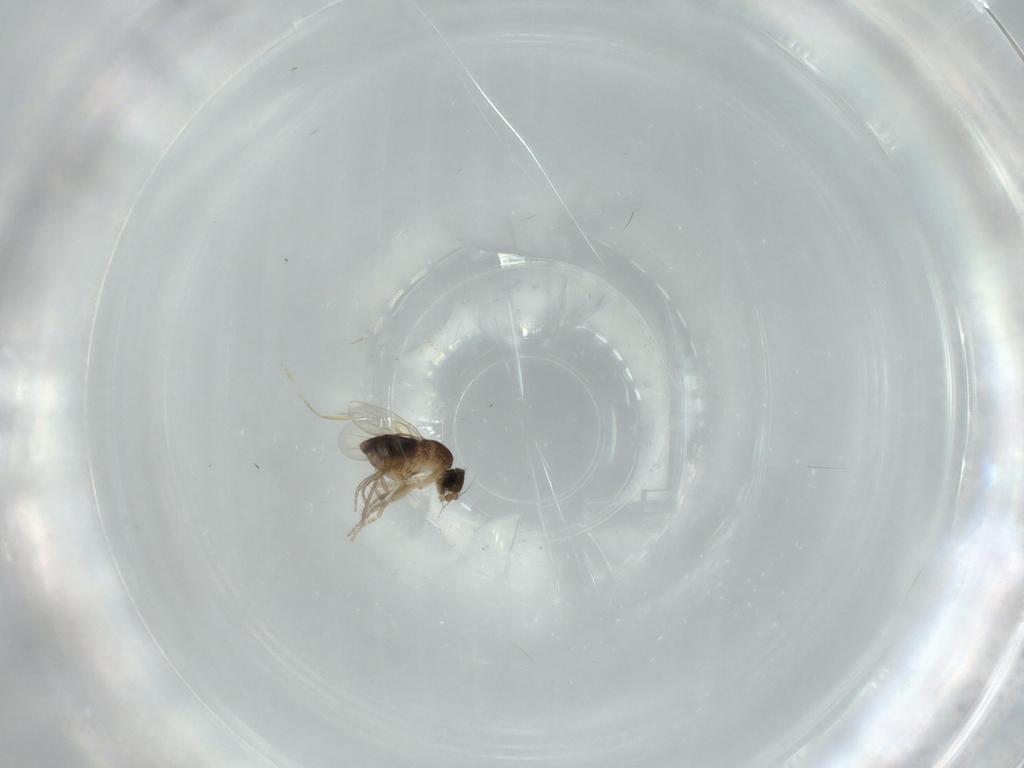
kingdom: Animalia
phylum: Arthropoda
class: Insecta
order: Diptera
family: Phoridae
